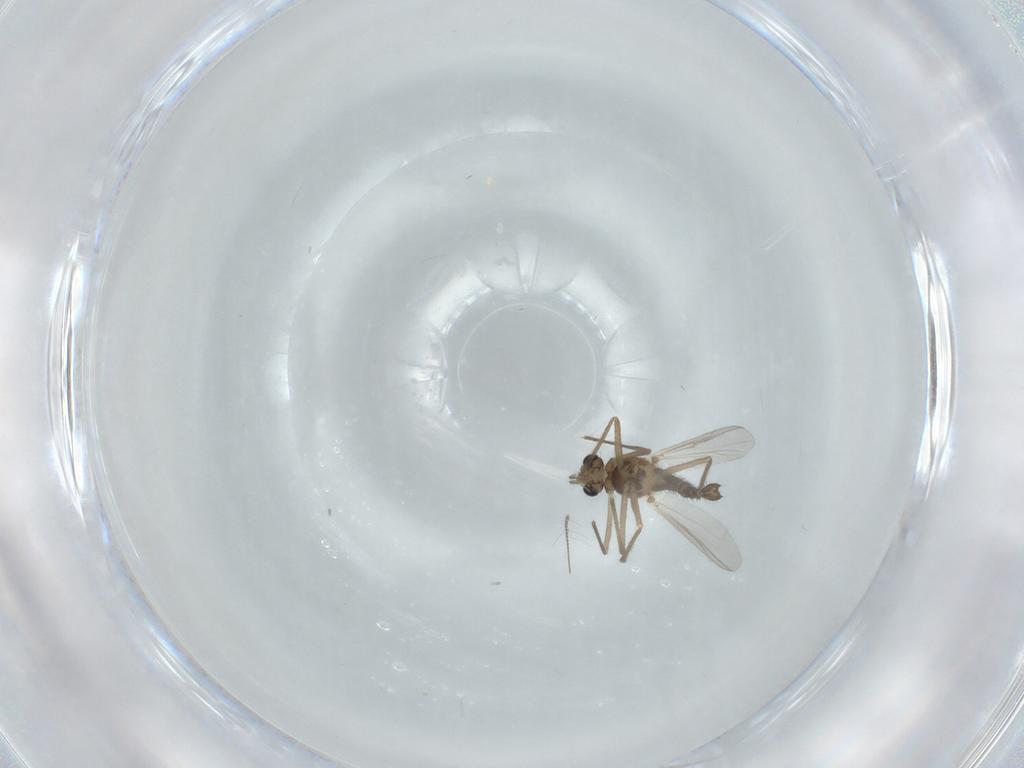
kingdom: Animalia
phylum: Arthropoda
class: Insecta
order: Diptera
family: Chironomidae
